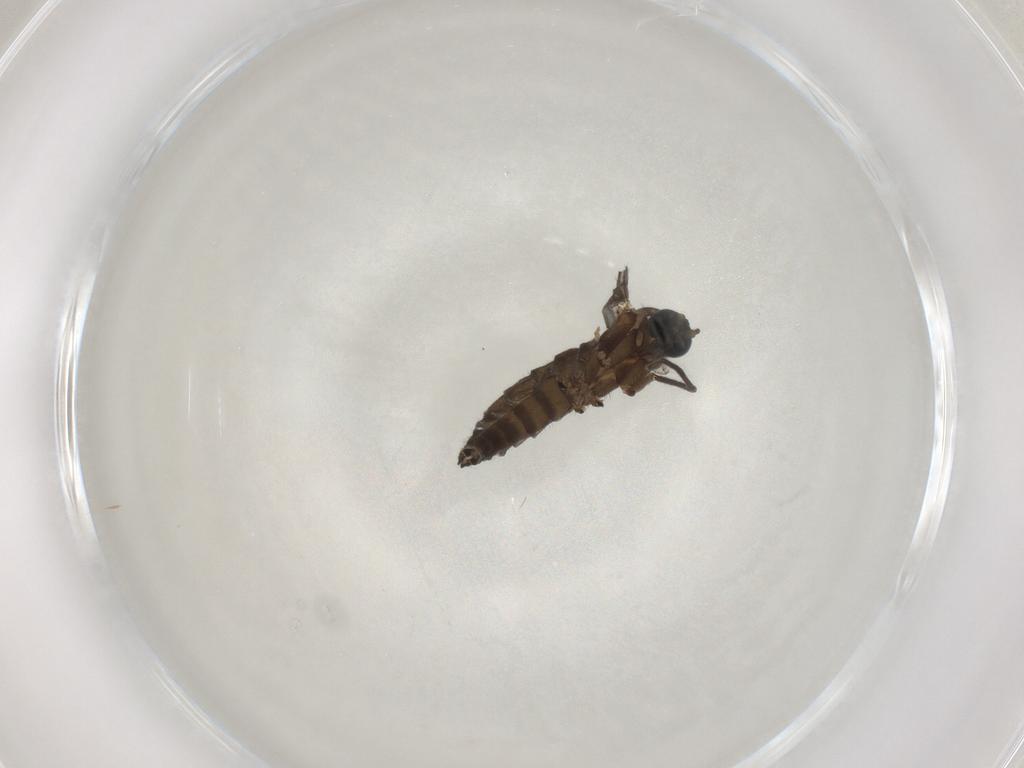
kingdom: Animalia
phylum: Arthropoda
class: Insecta
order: Diptera
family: Sciaridae
